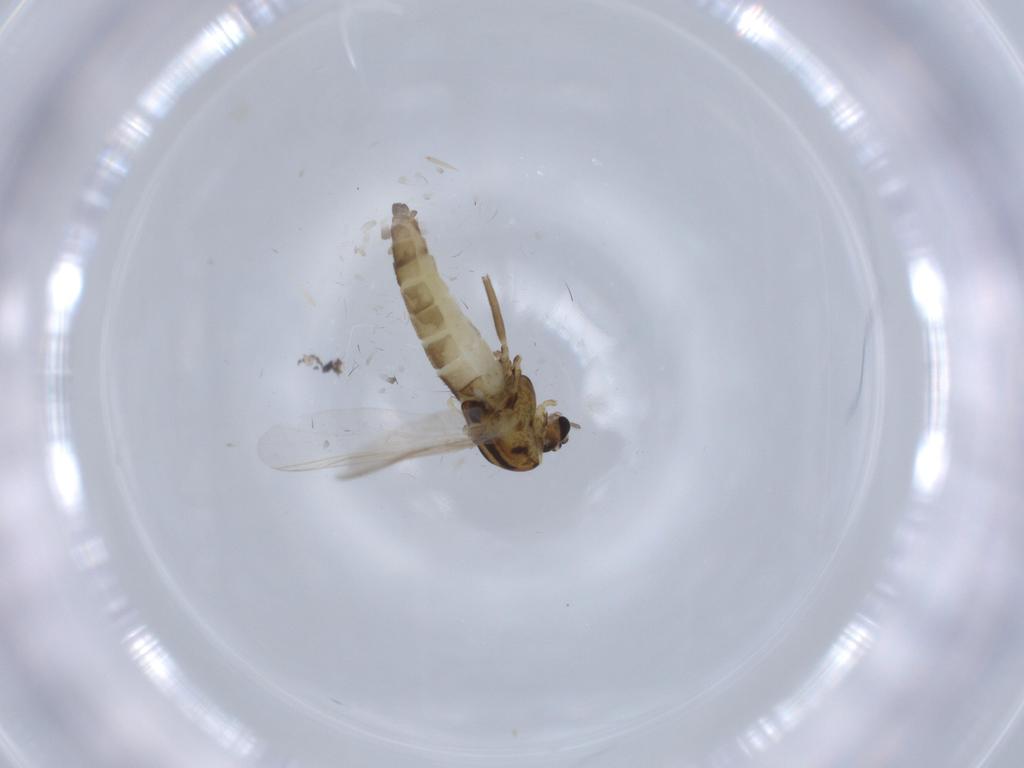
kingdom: Animalia
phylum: Arthropoda
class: Insecta
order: Diptera
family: Chironomidae
